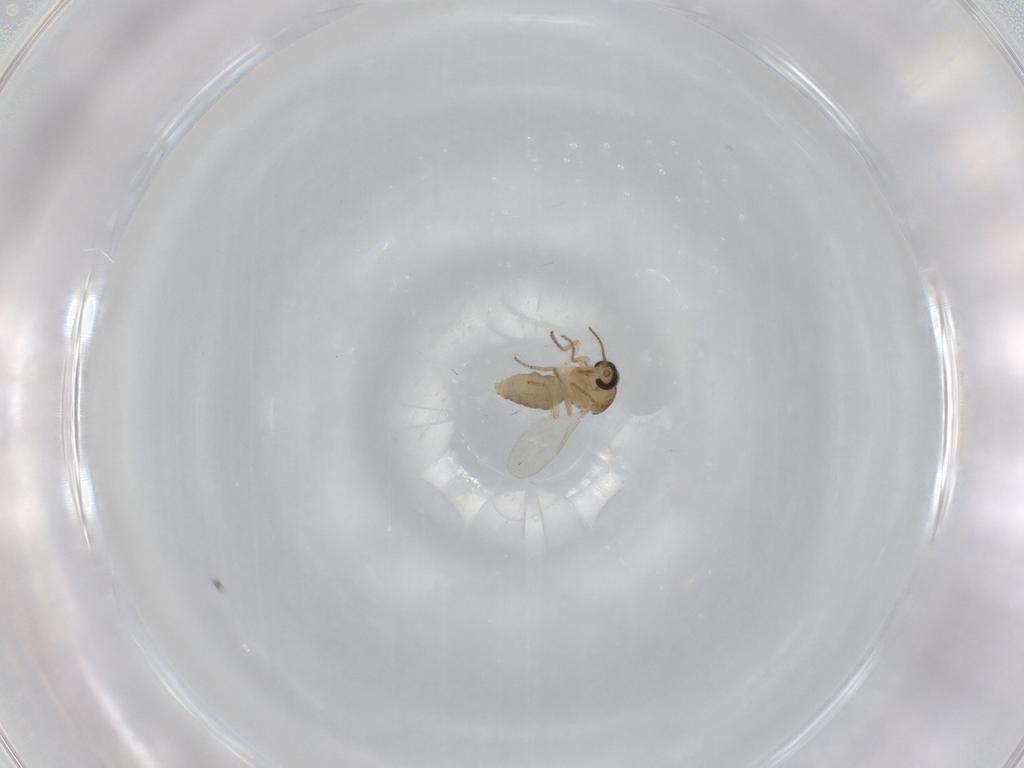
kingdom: Animalia
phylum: Arthropoda
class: Insecta
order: Diptera
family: Ceratopogonidae
